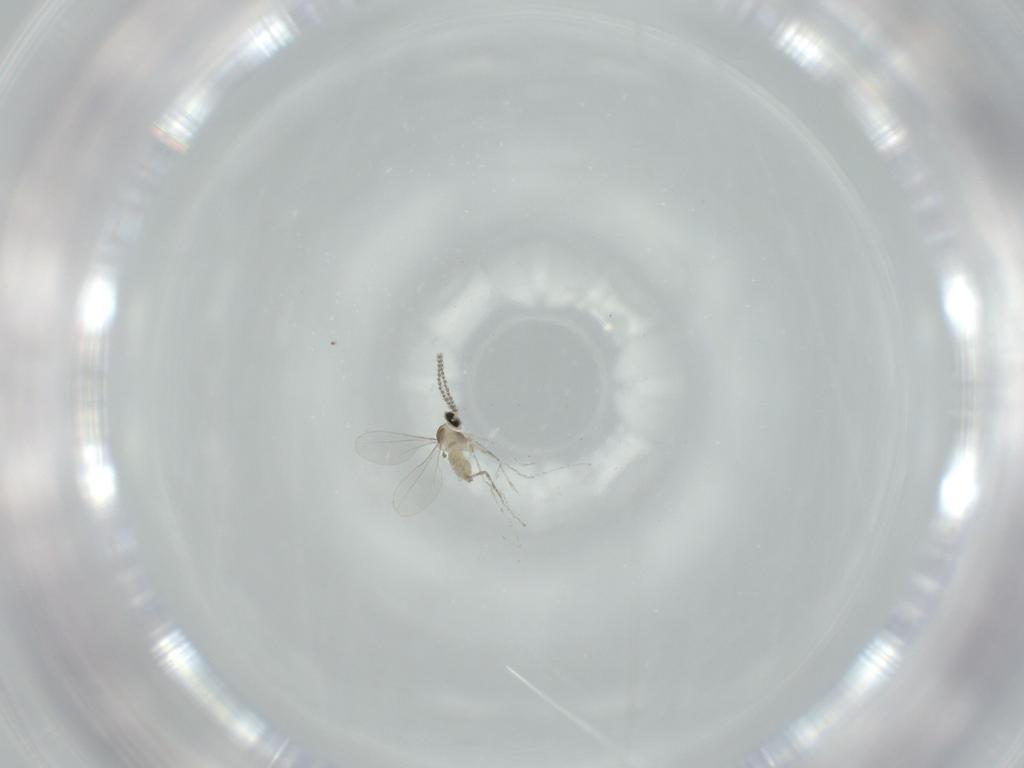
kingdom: Animalia
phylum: Arthropoda
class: Insecta
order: Diptera
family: Cecidomyiidae
